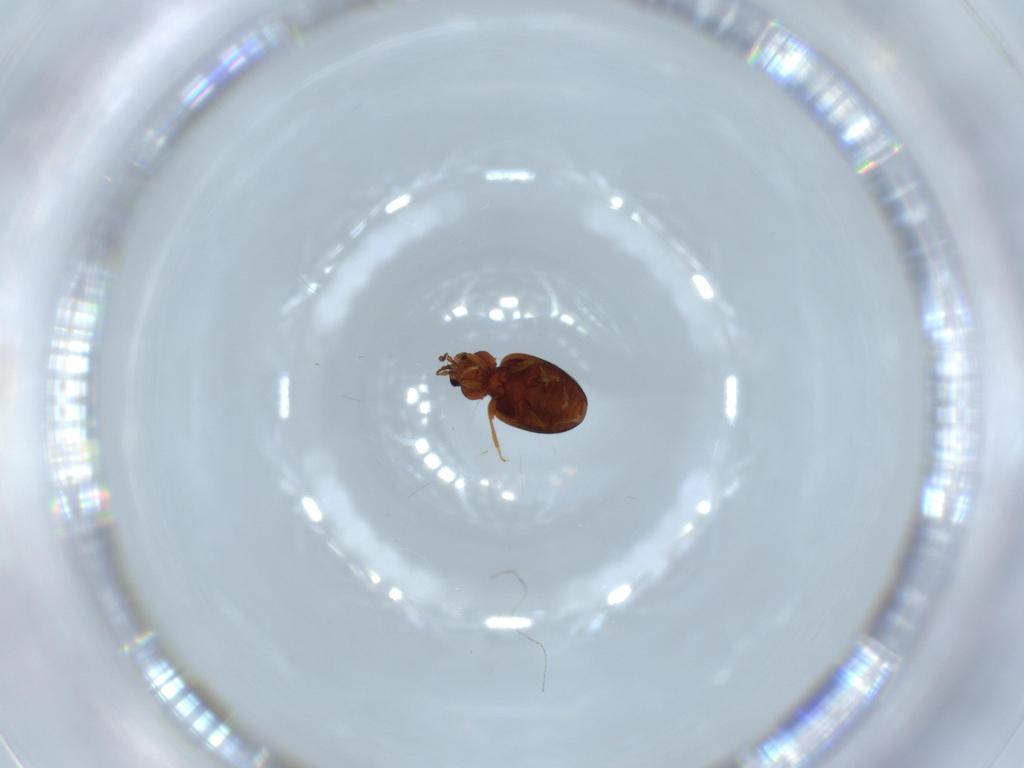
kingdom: Animalia
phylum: Arthropoda
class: Insecta
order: Coleoptera
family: Latridiidae
